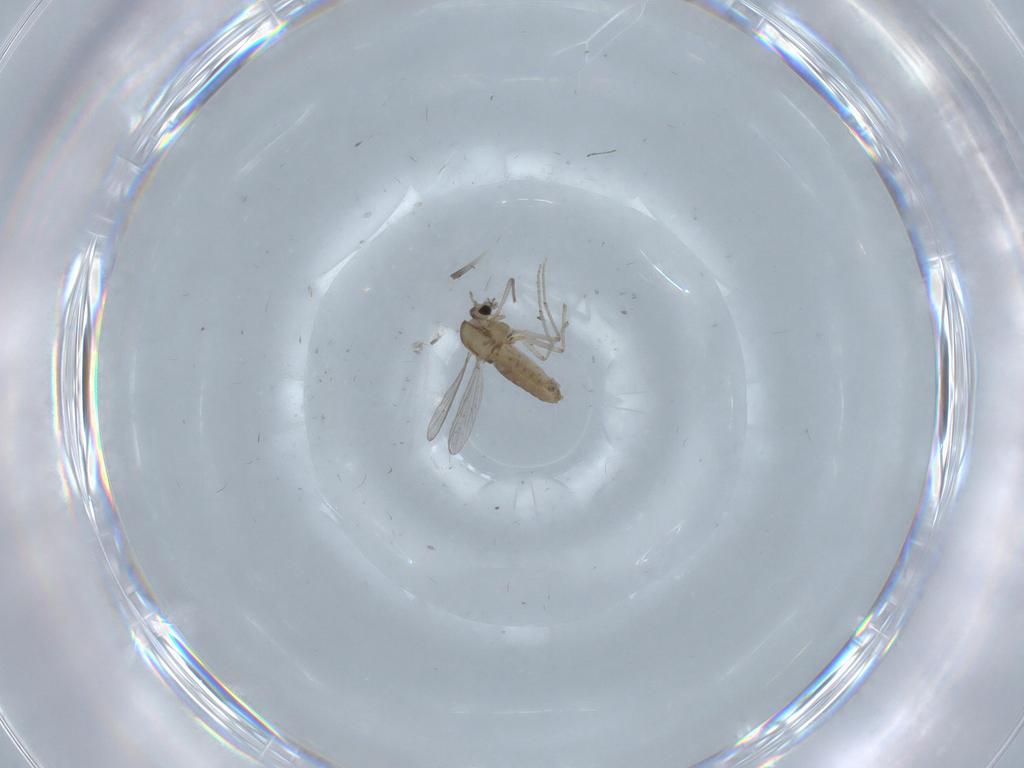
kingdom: Animalia
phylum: Arthropoda
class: Insecta
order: Diptera
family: Chironomidae
